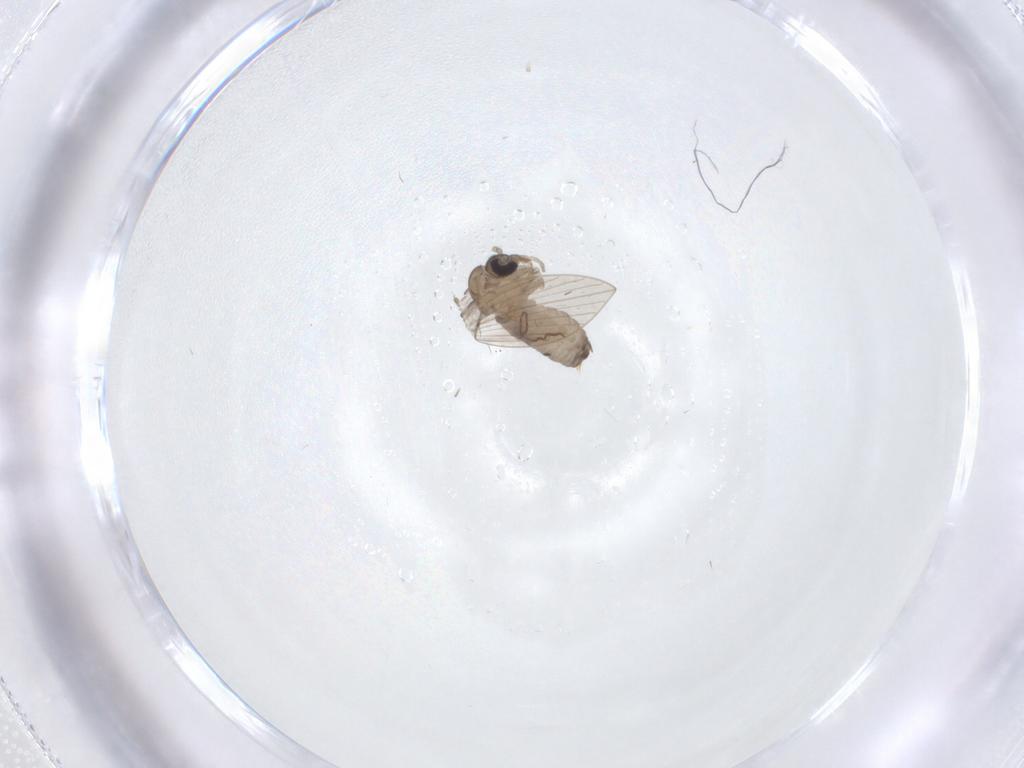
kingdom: Animalia
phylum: Arthropoda
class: Insecta
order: Diptera
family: Psychodidae
